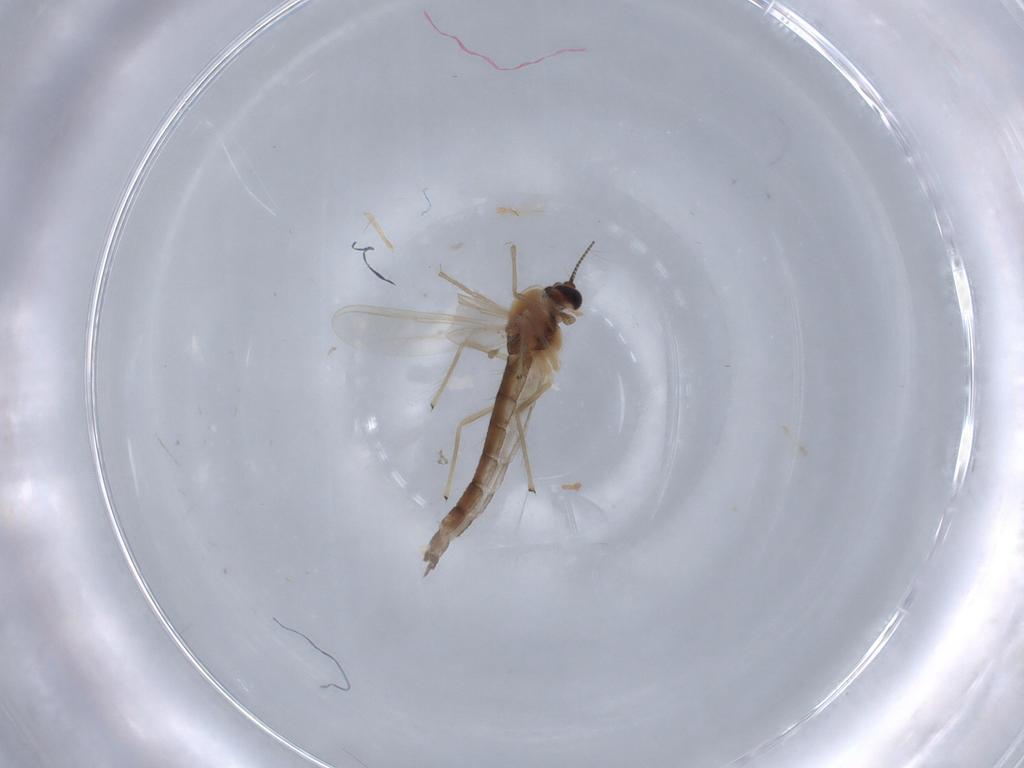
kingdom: Animalia
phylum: Arthropoda
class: Insecta
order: Diptera
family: Chironomidae
